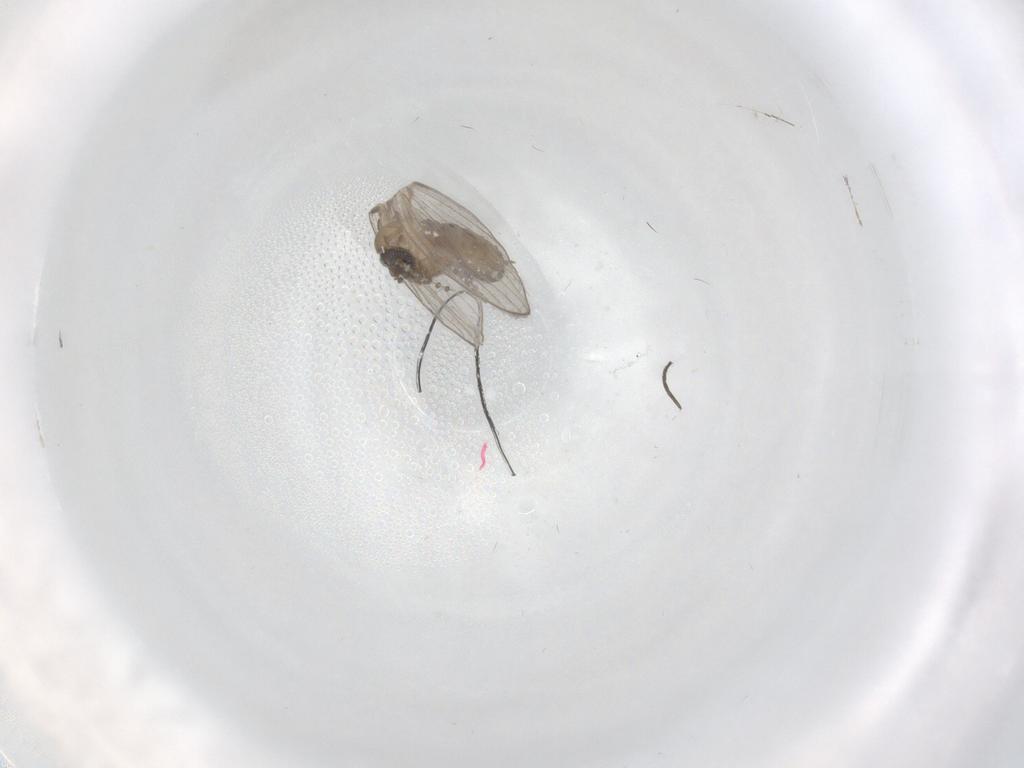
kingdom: Animalia
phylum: Arthropoda
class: Insecta
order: Diptera
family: Psychodidae
